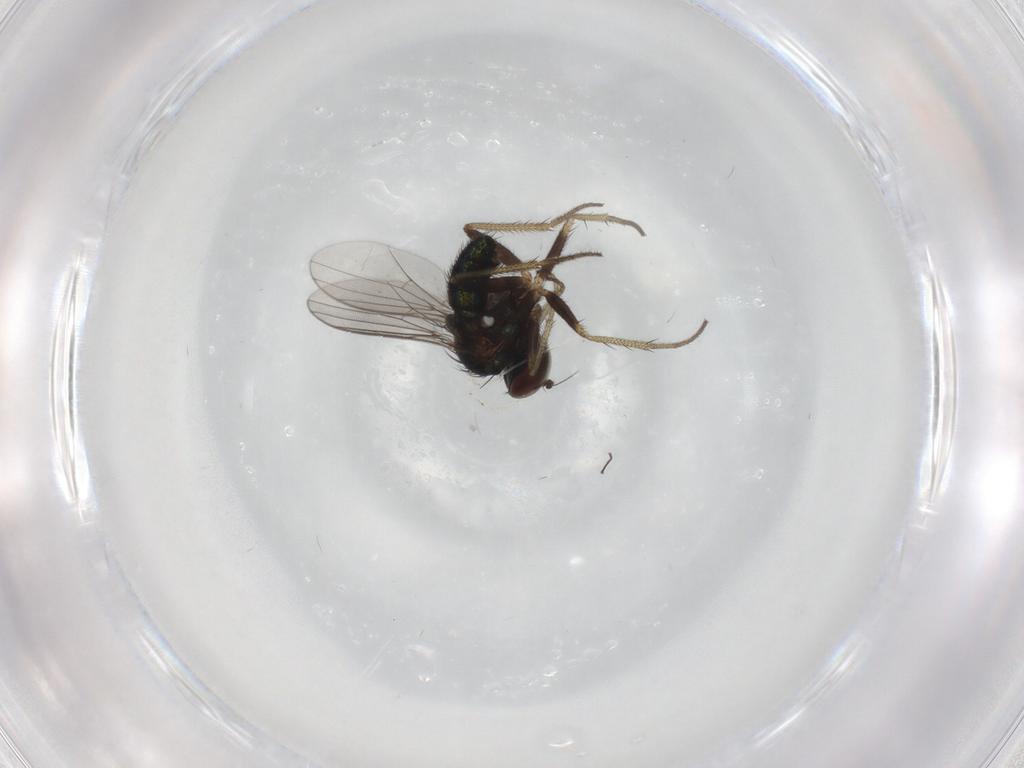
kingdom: Animalia
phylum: Arthropoda
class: Insecta
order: Diptera
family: Dolichopodidae
